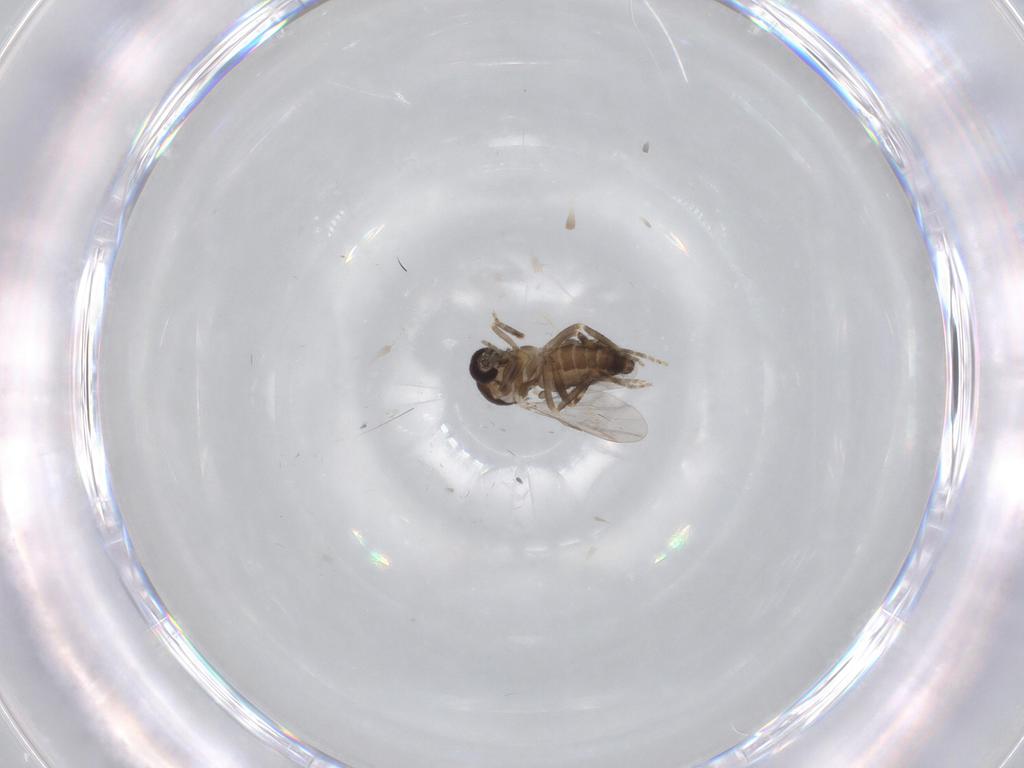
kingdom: Animalia
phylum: Arthropoda
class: Insecta
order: Diptera
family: Ceratopogonidae
